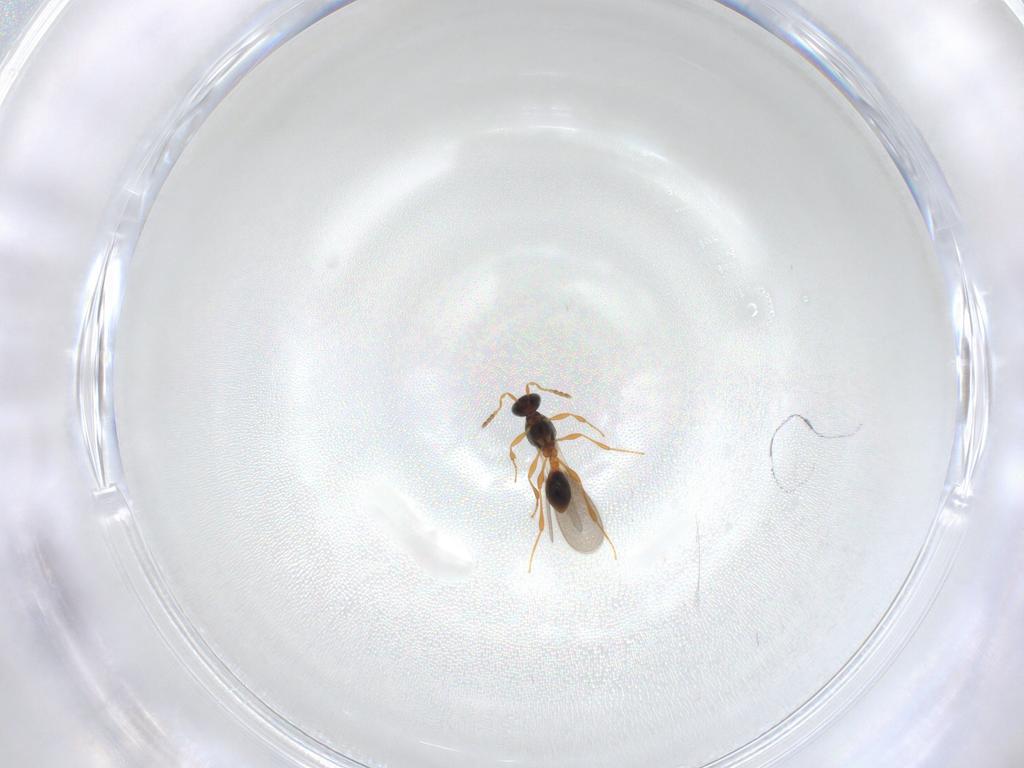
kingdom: Animalia
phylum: Arthropoda
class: Insecta
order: Hymenoptera
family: Platygastridae
